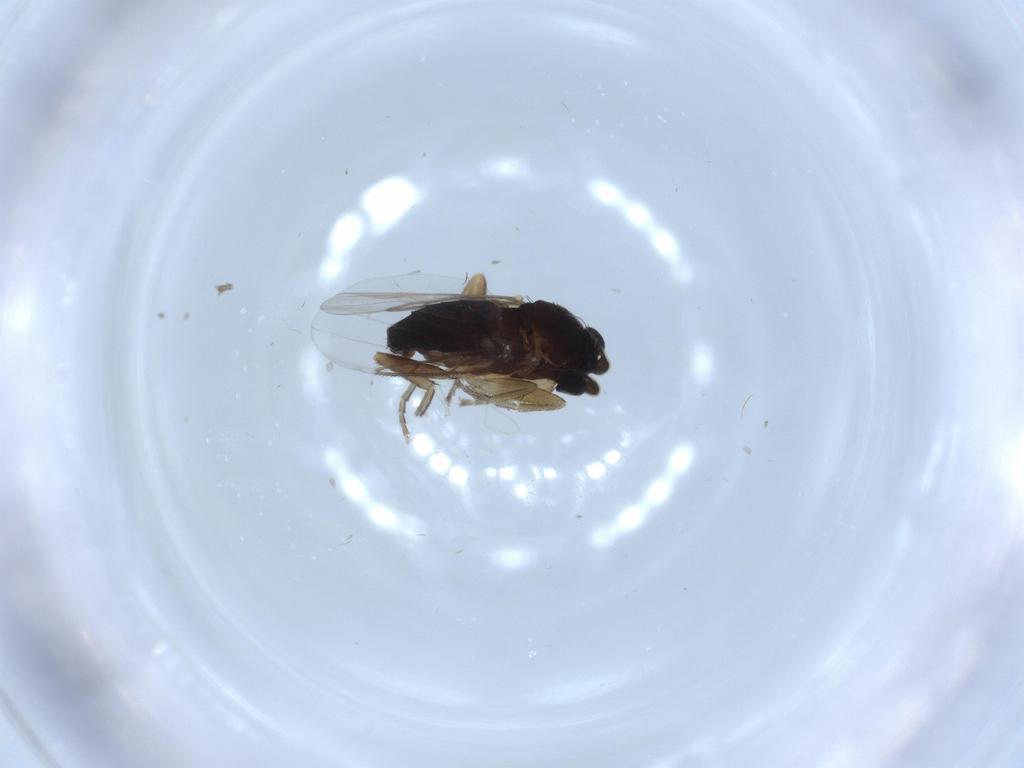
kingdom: Animalia
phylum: Arthropoda
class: Insecta
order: Diptera
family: Phoridae
